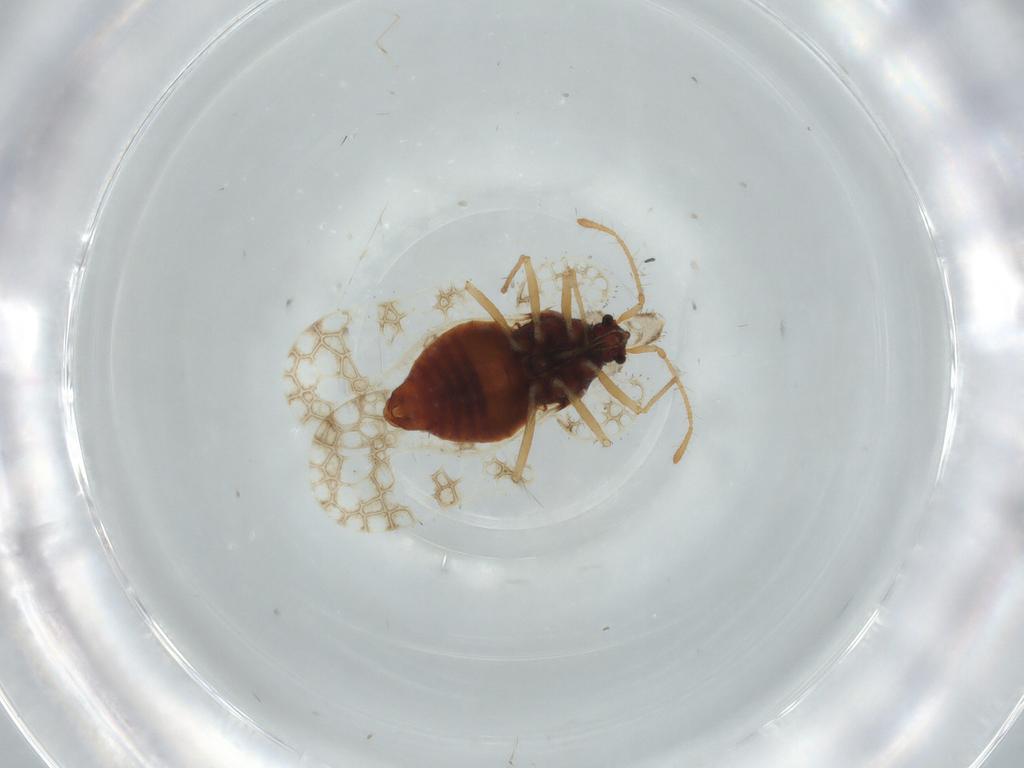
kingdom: Animalia
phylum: Arthropoda
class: Insecta
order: Hemiptera
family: Tingidae
